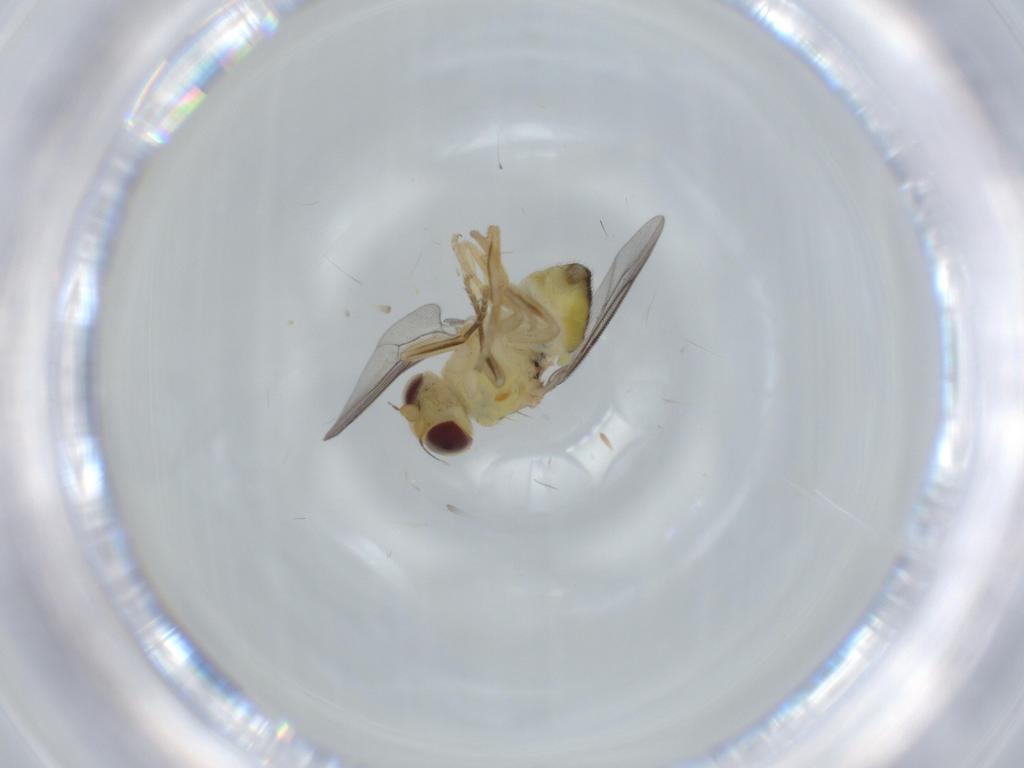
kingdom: Animalia
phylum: Arthropoda
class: Insecta
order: Diptera
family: Chloropidae
